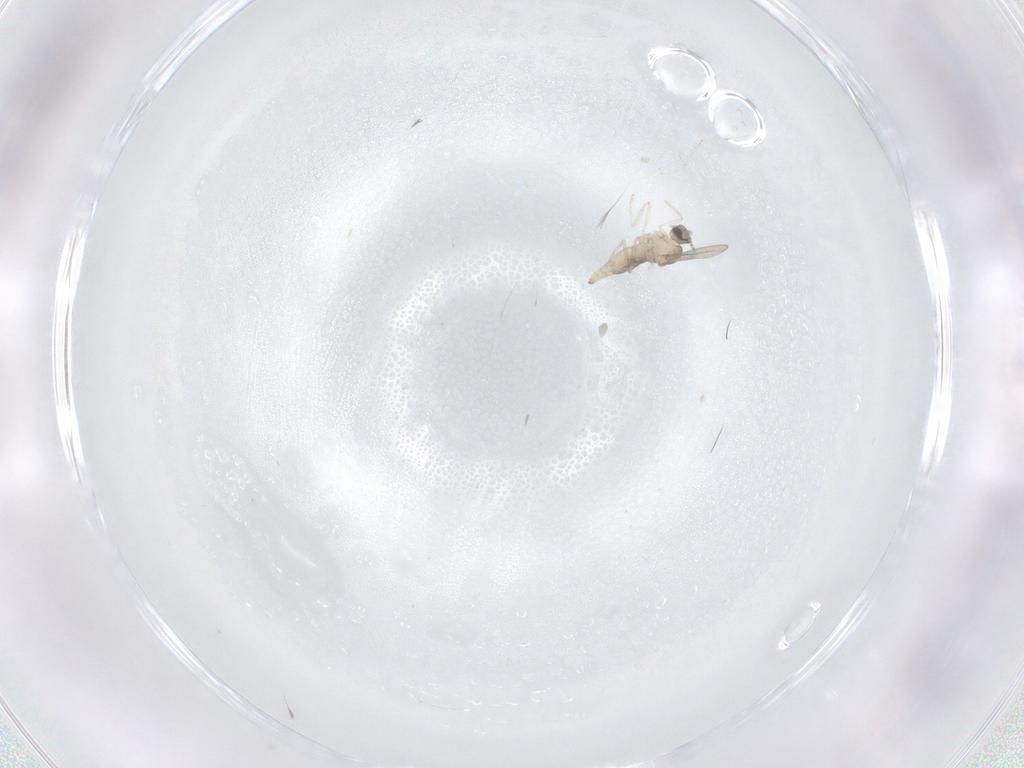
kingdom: Animalia
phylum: Arthropoda
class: Insecta
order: Diptera
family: Cecidomyiidae
